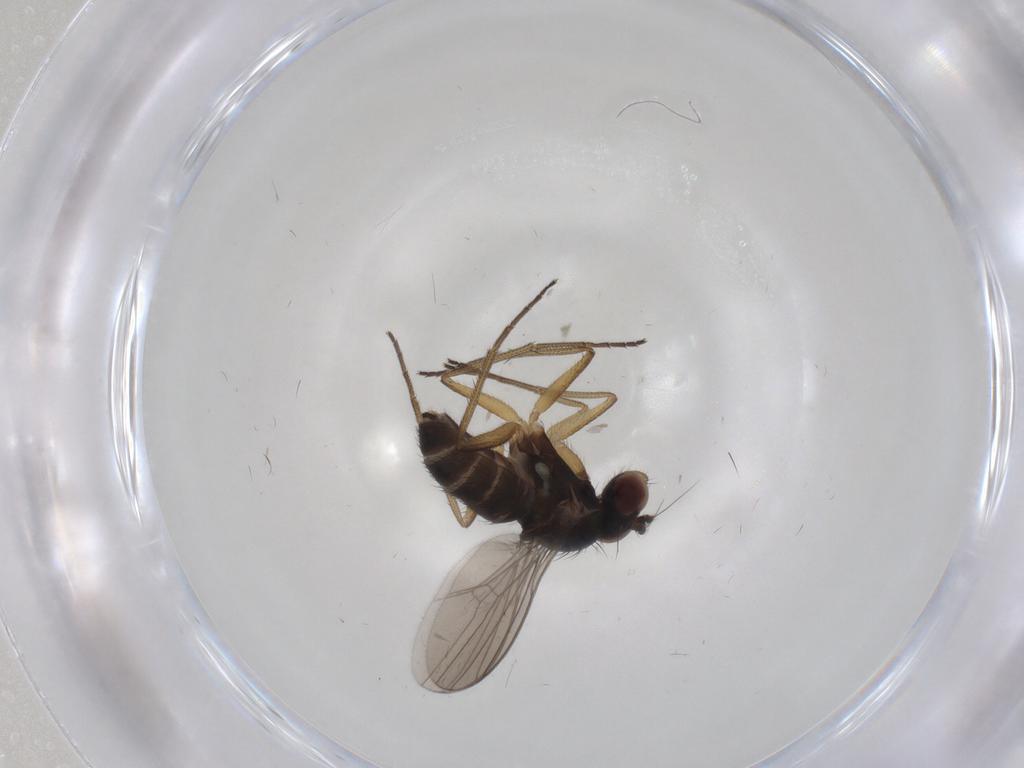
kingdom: Animalia
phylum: Arthropoda
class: Insecta
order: Diptera
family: Dolichopodidae
